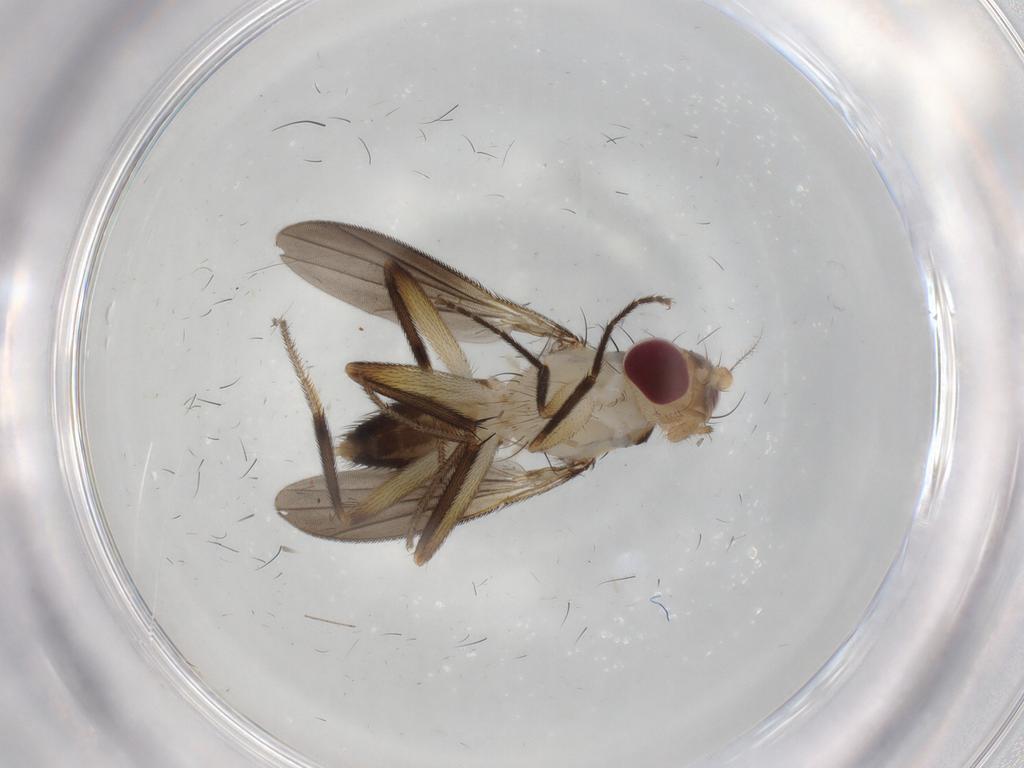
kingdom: Animalia
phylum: Arthropoda
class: Insecta
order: Diptera
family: Clusiidae
